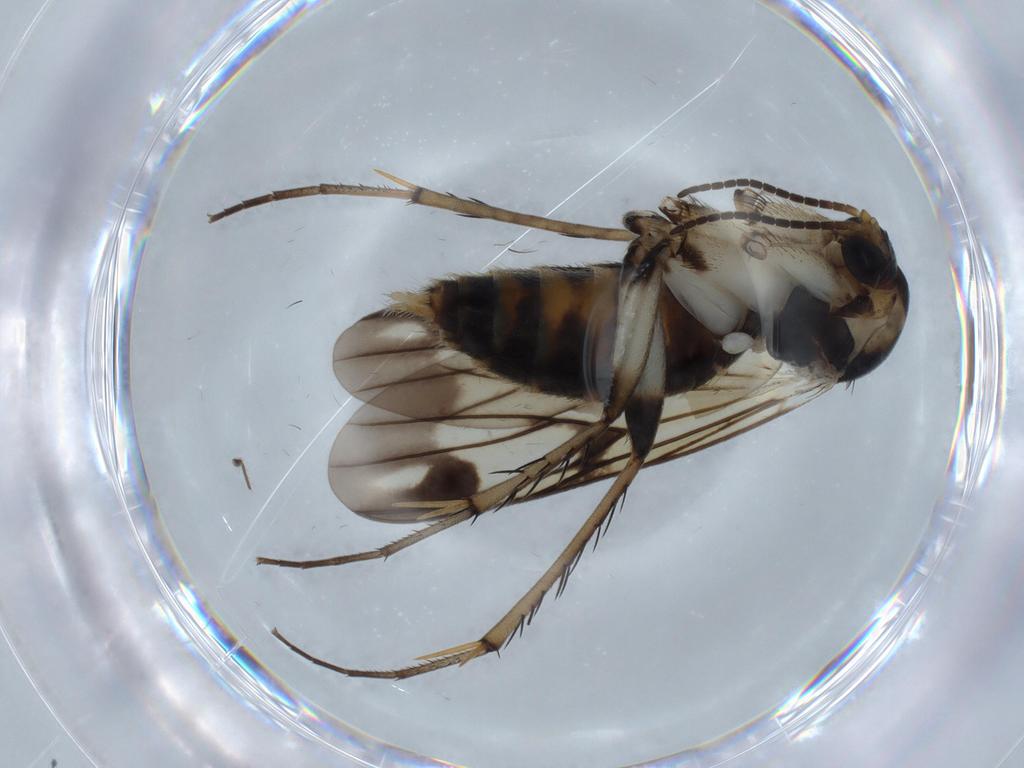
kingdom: Animalia
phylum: Arthropoda
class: Insecta
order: Diptera
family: Mycetophilidae
